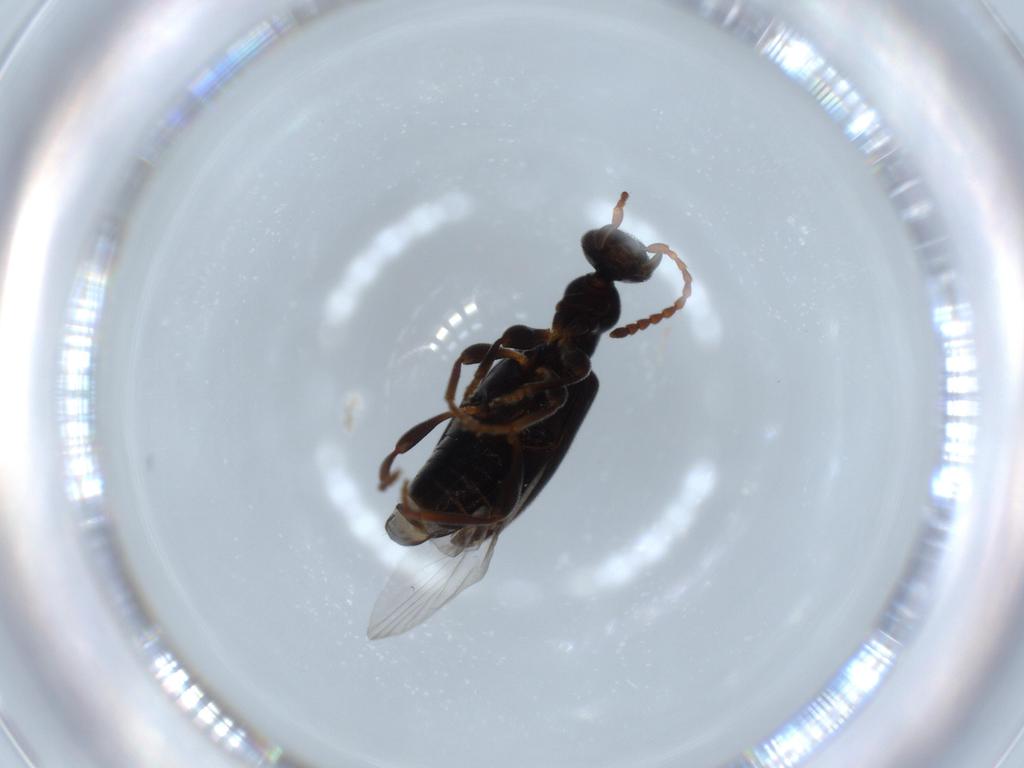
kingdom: Animalia
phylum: Arthropoda
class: Insecta
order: Coleoptera
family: Anthicidae
